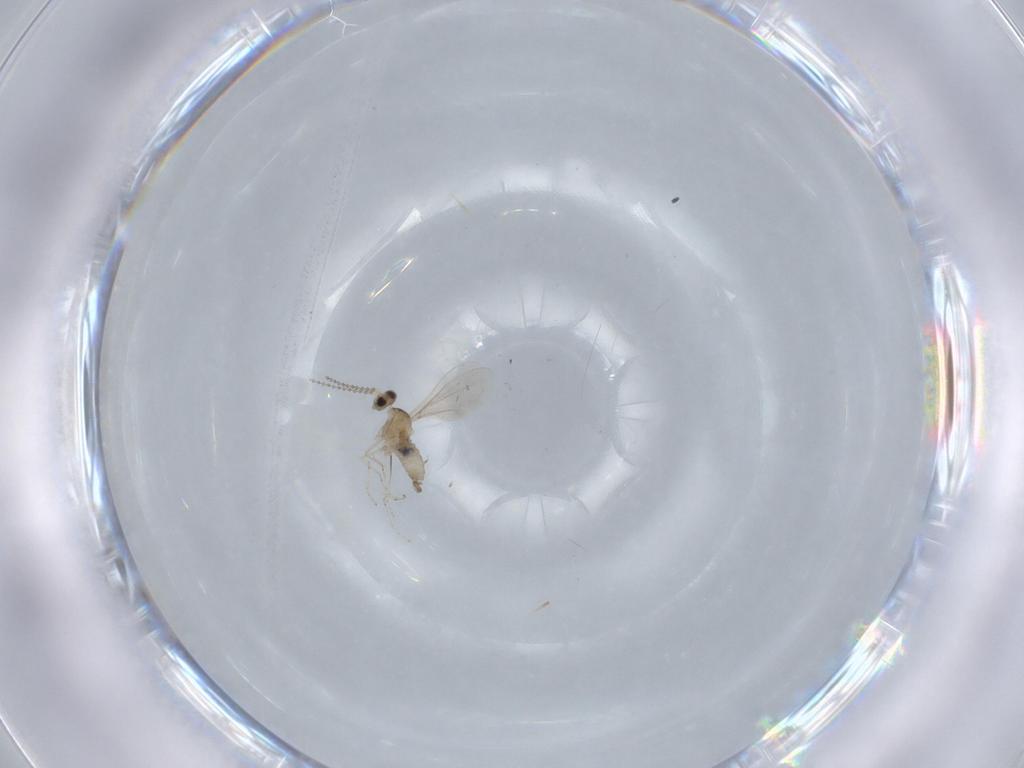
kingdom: Animalia
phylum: Arthropoda
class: Insecta
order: Diptera
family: Cecidomyiidae
